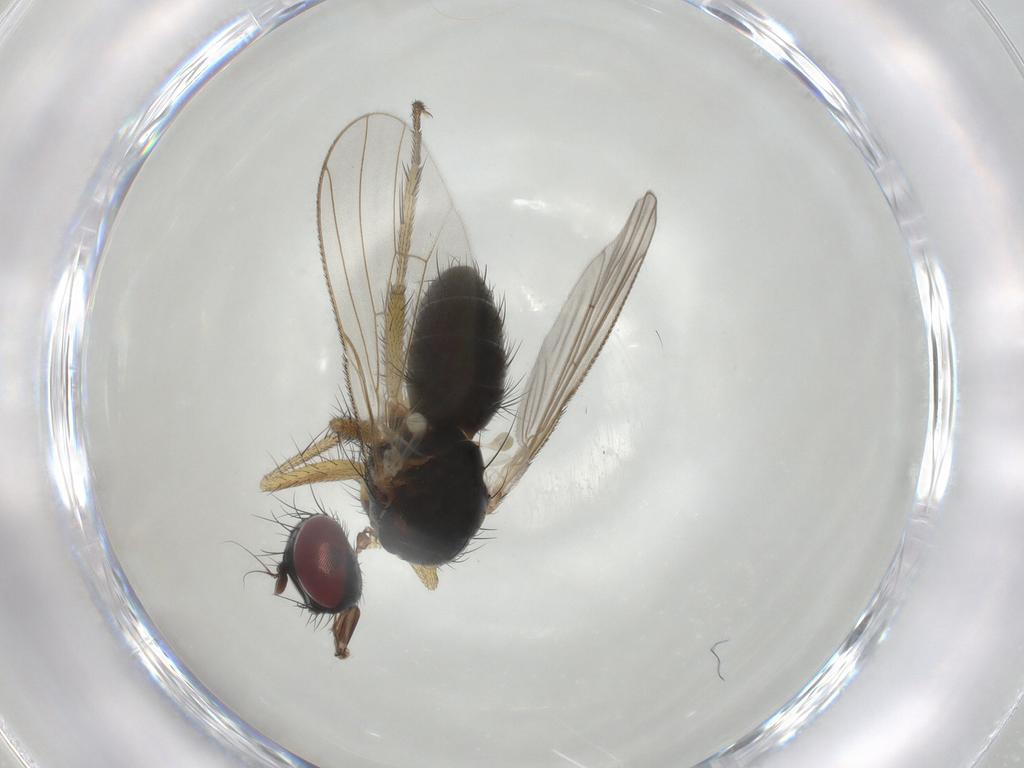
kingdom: Animalia
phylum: Arthropoda
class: Insecta
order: Diptera
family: Muscidae
